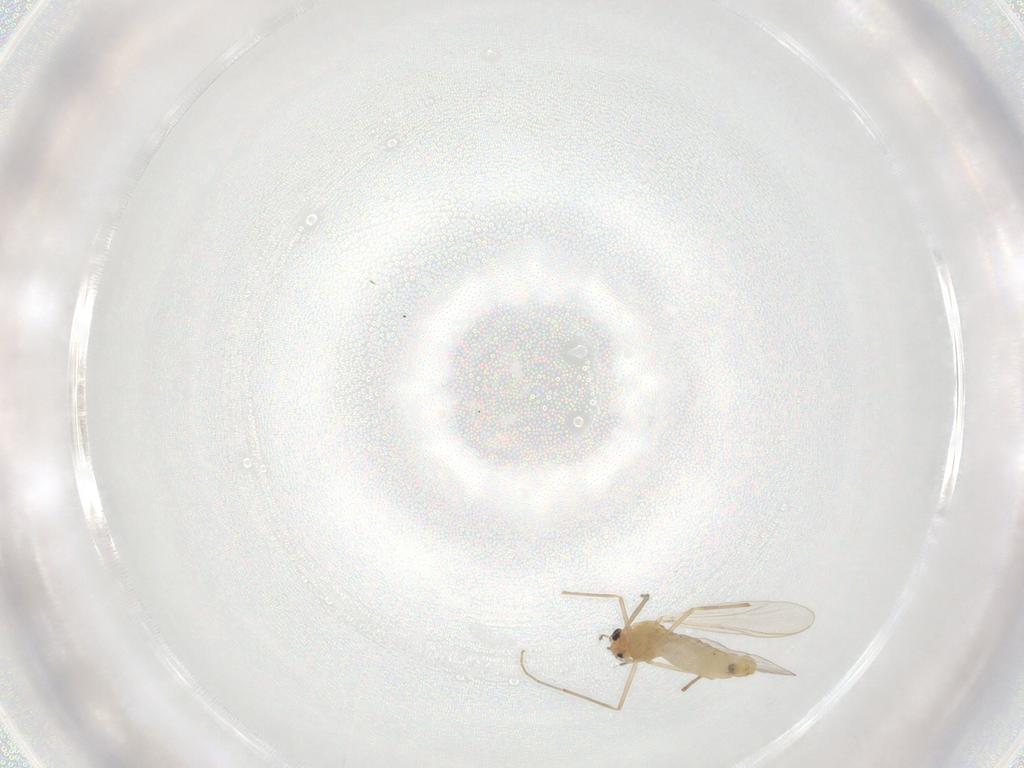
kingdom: Animalia
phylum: Arthropoda
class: Insecta
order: Diptera
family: Chironomidae
